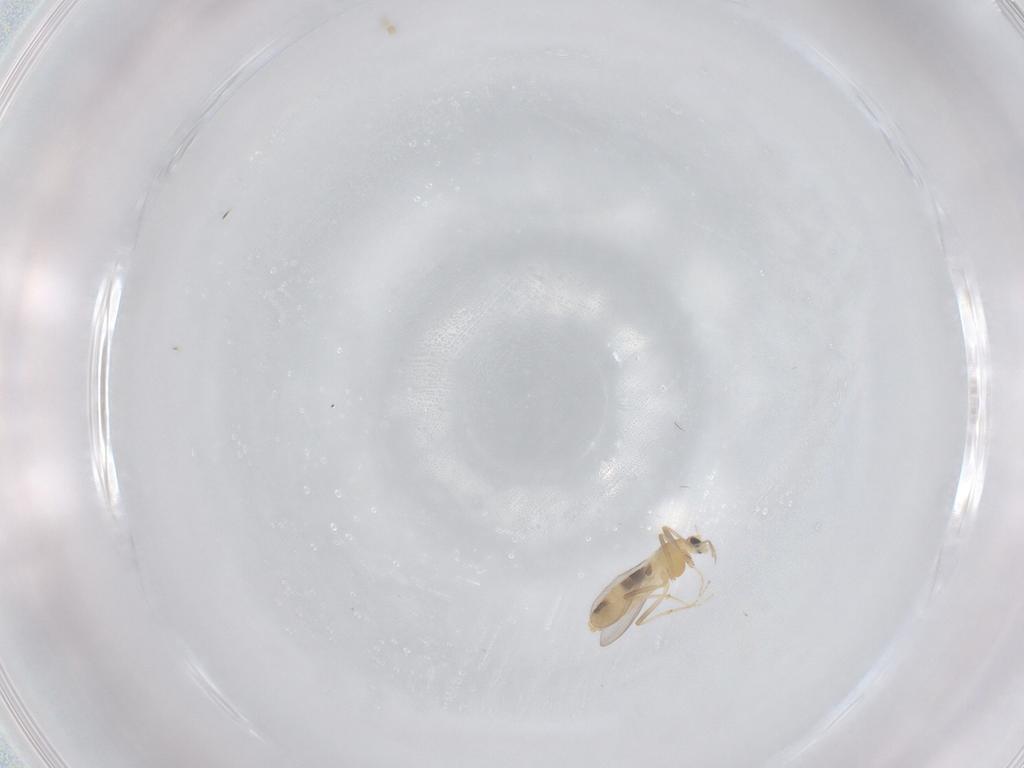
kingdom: Animalia
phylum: Arthropoda
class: Insecta
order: Diptera
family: Chironomidae
